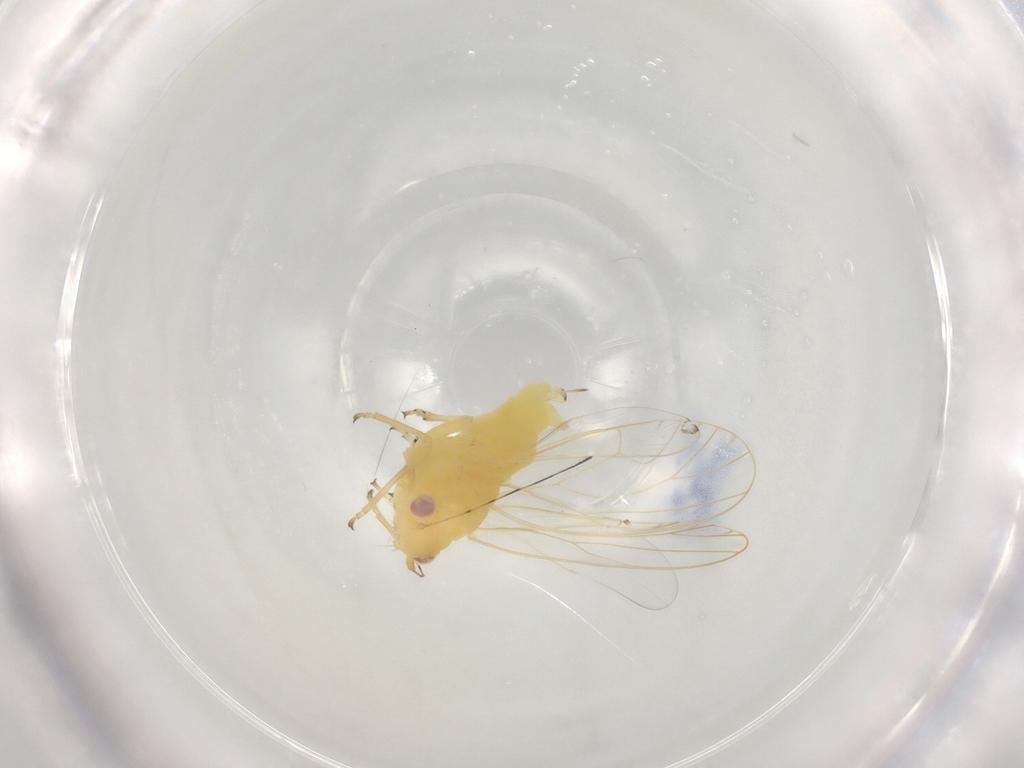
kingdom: Animalia
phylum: Arthropoda
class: Insecta
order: Hemiptera
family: Psyllidae
